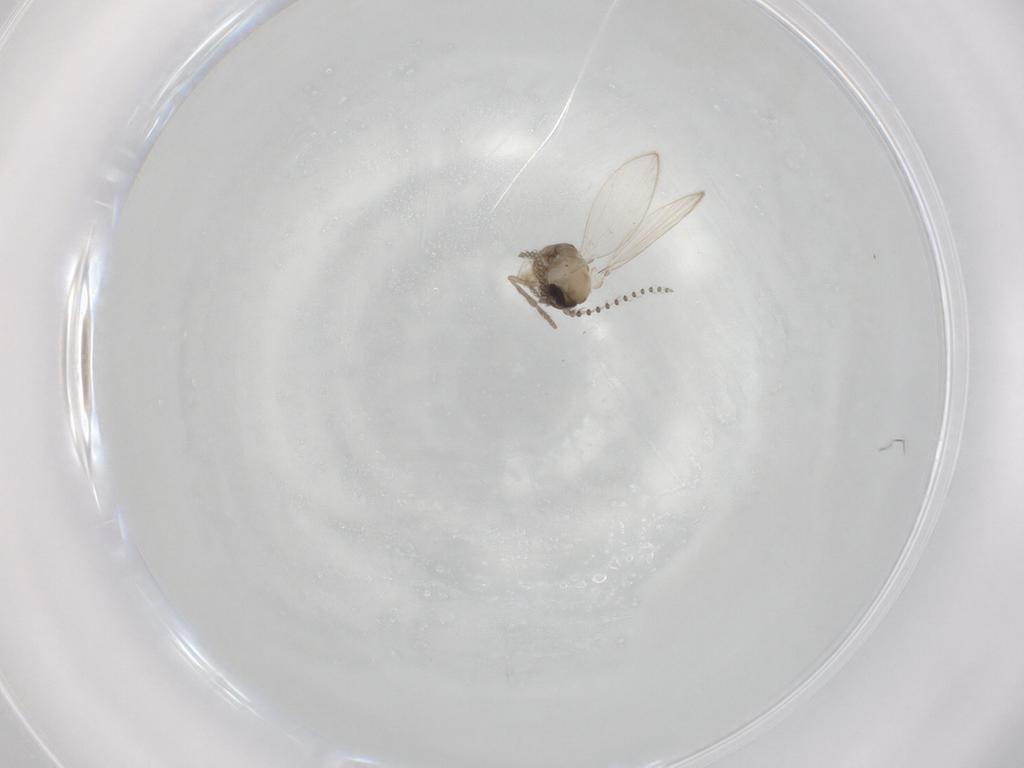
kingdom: Animalia
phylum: Arthropoda
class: Insecta
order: Diptera
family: Psychodidae
